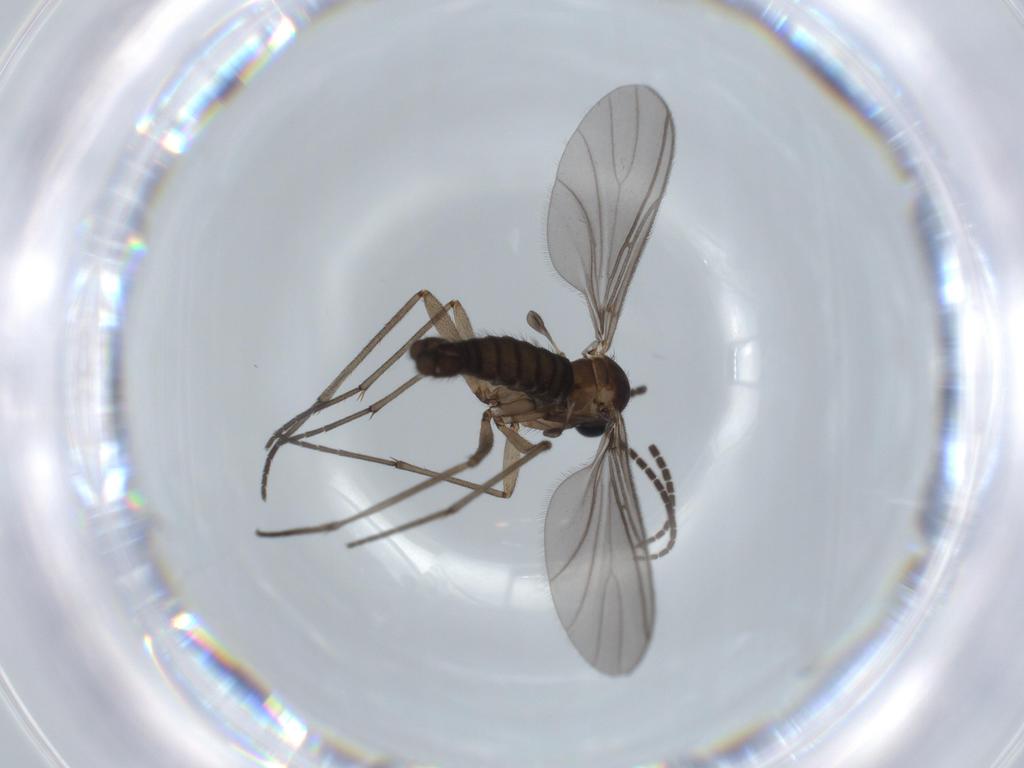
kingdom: Animalia
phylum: Arthropoda
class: Insecta
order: Diptera
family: Sciaridae
